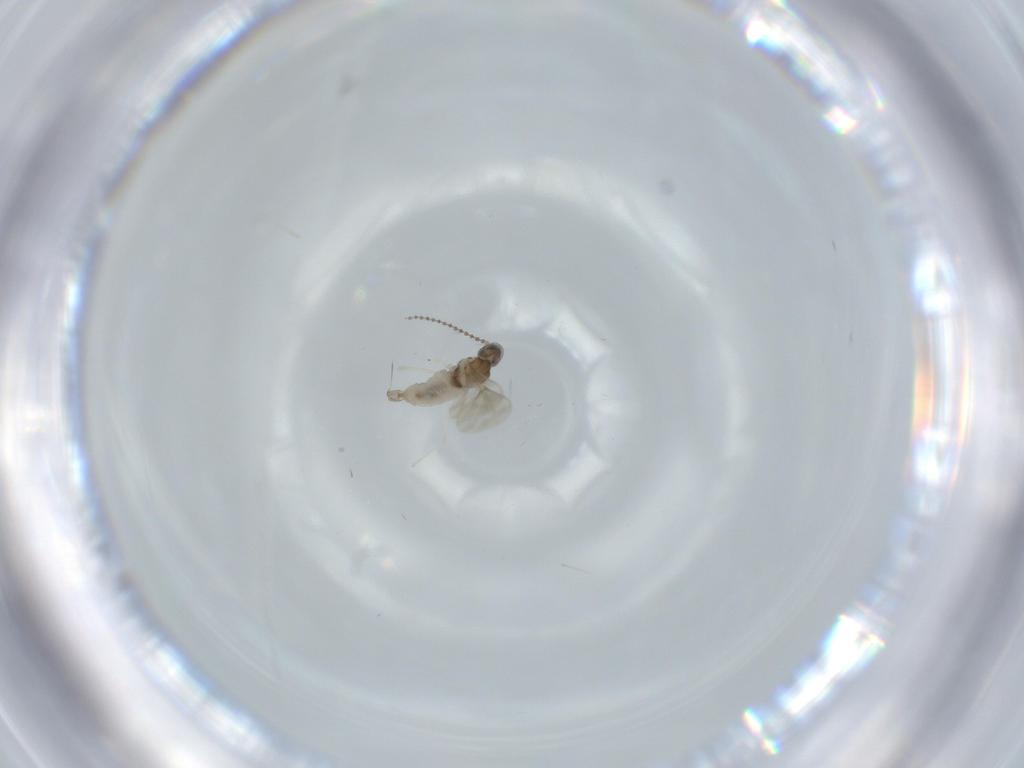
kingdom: Animalia
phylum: Arthropoda
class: Insecta
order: Diptera
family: Cecidomyiidae
